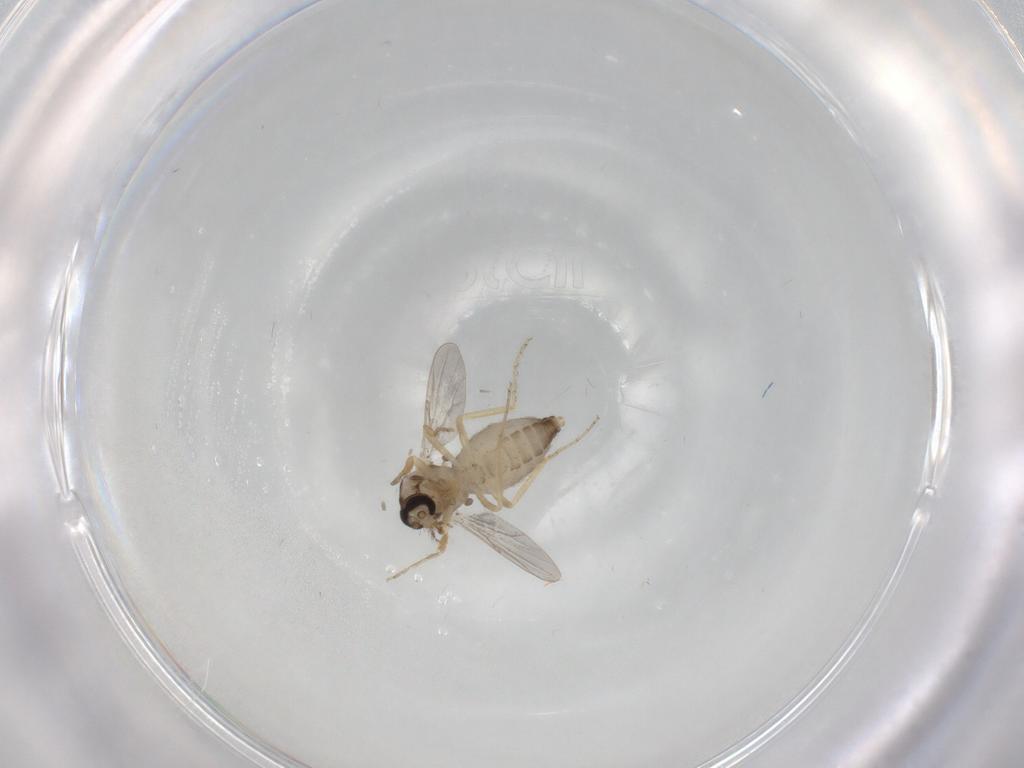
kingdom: Animalia
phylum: Arthropoda
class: Insecta
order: Diptera
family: Ceratopogonidae
